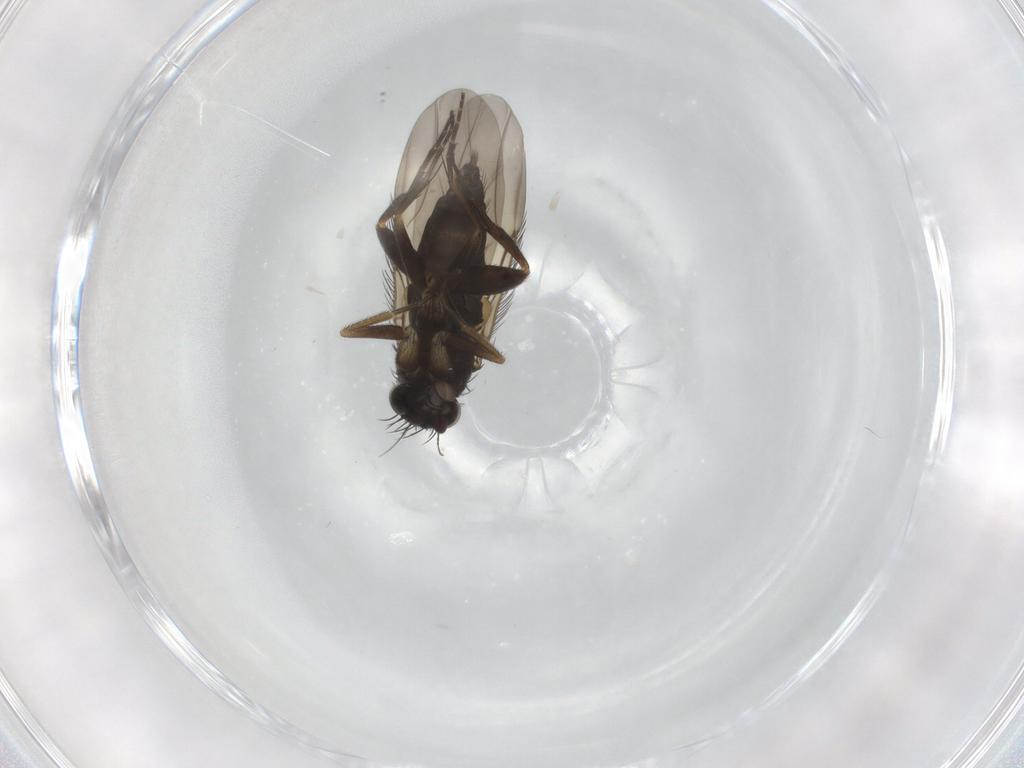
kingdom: Animalia
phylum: Arthropoda
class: Insecta
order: Diptera
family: Phoridae
